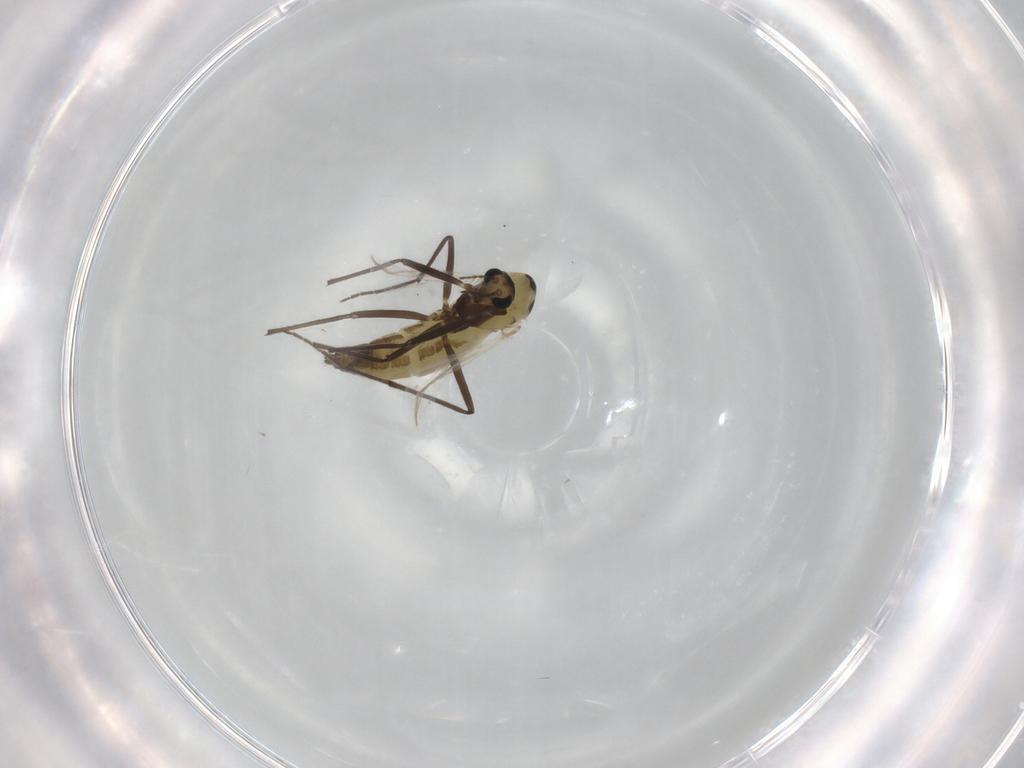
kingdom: Animalia
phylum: Arthropoda
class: Insecta
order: Diptera
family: Chironomidae
